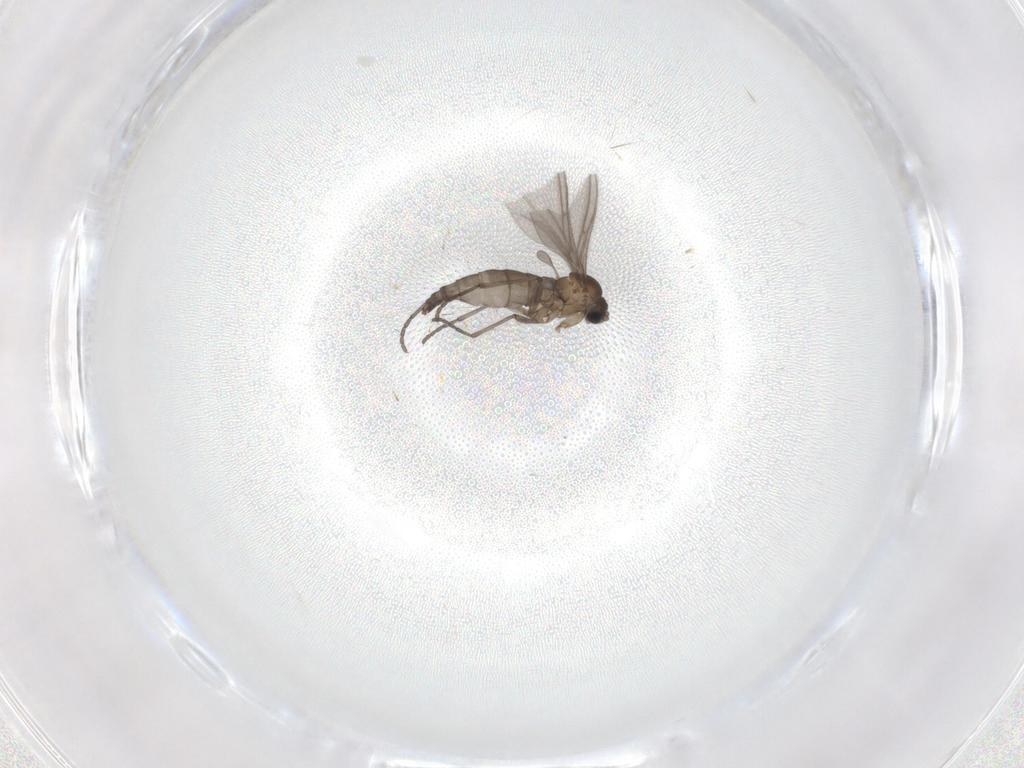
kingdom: Animalia
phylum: Arthropoda
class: Insecta
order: Diptera
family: Sciaridae
